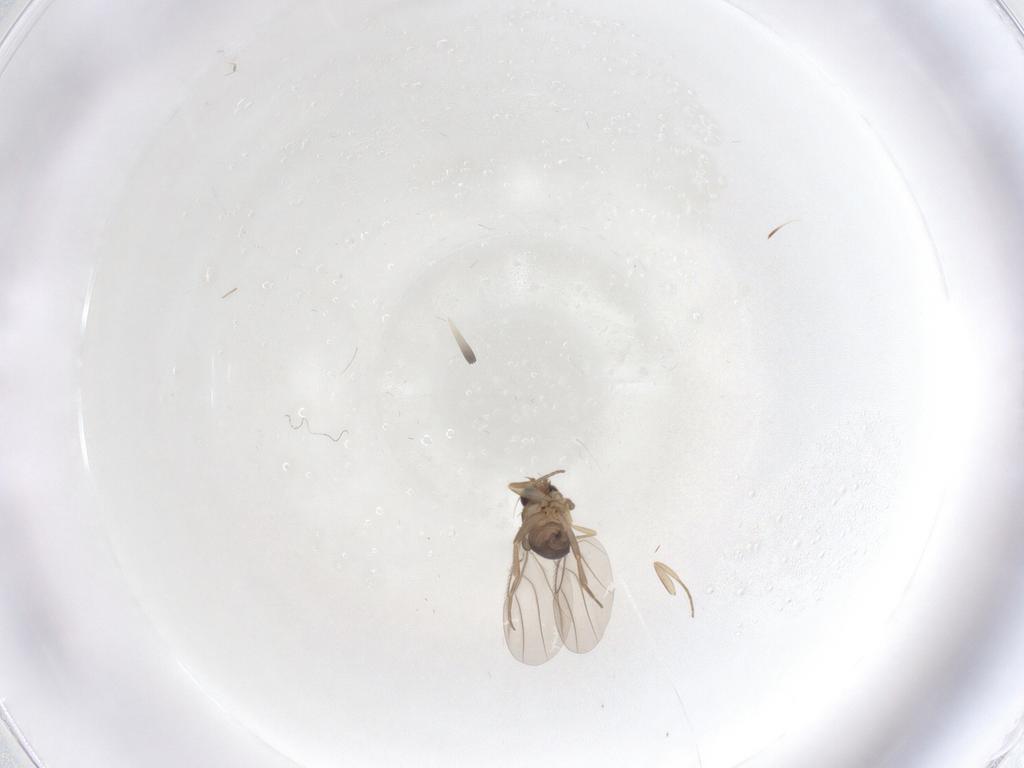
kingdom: Animalia
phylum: Arthropoda
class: Insecta
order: Diptera
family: Phoridae
